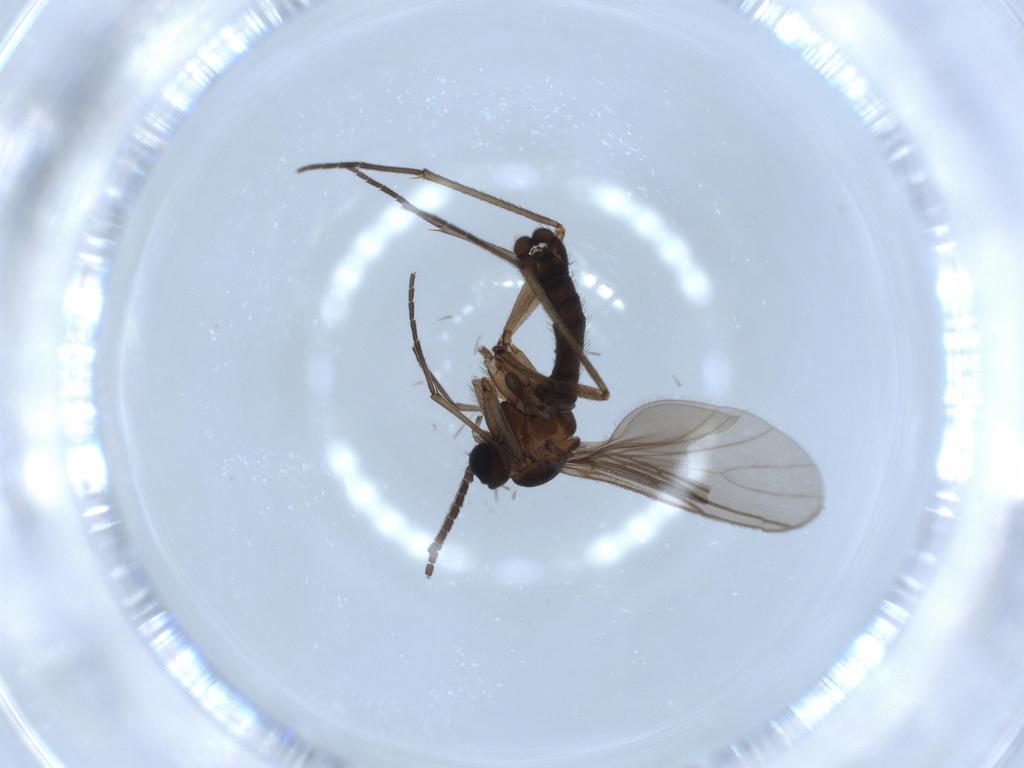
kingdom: Animalia
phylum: Arthropoda
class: Insecta
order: Diptera
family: Sciaridae
